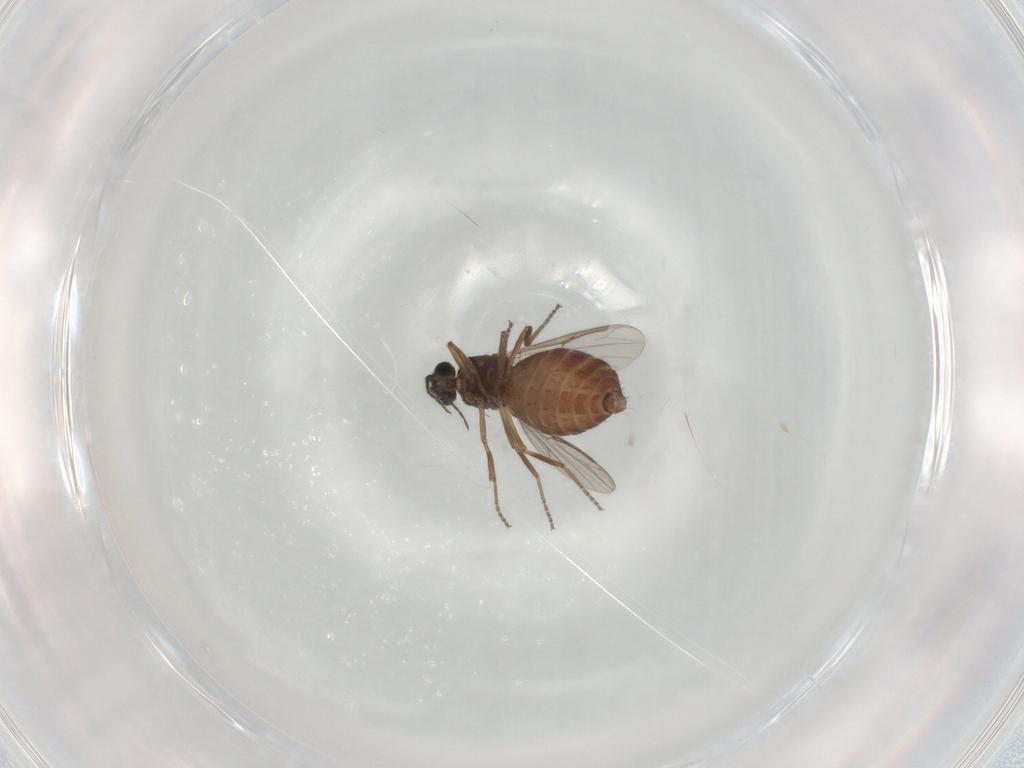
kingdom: Animalia
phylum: Arthropoda
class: Insecta
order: Diptera
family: Ceratopogonidae
